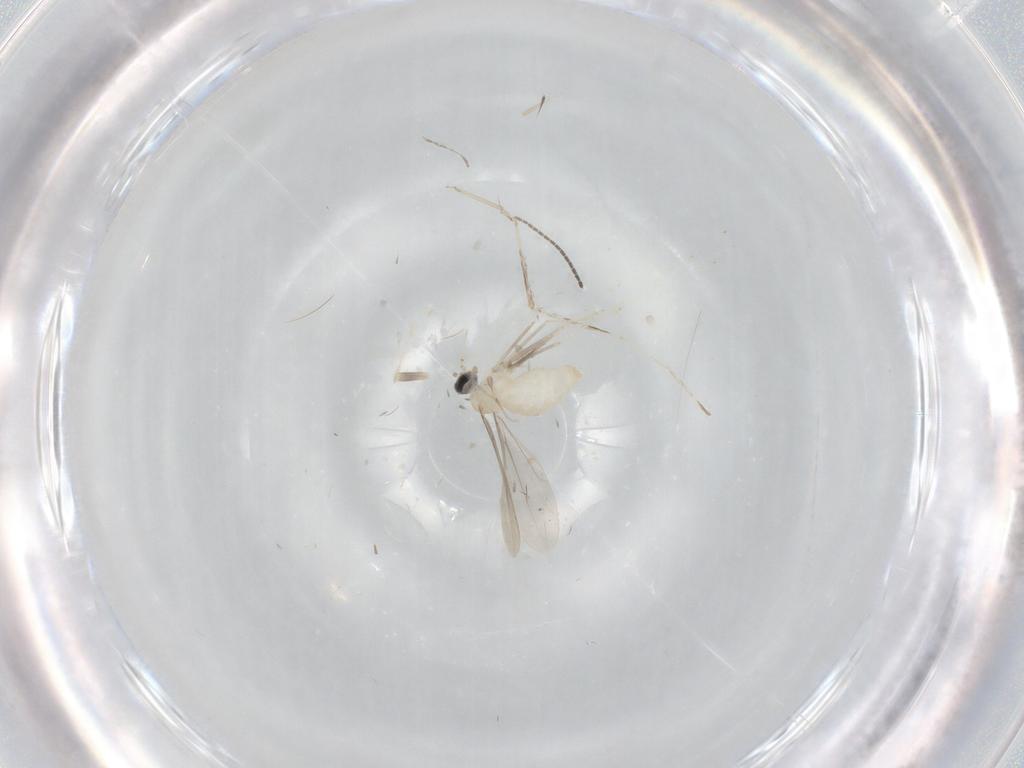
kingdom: Animalia
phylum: Arthropoda
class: Insecta
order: Diptera
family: Cecidomyiidae
